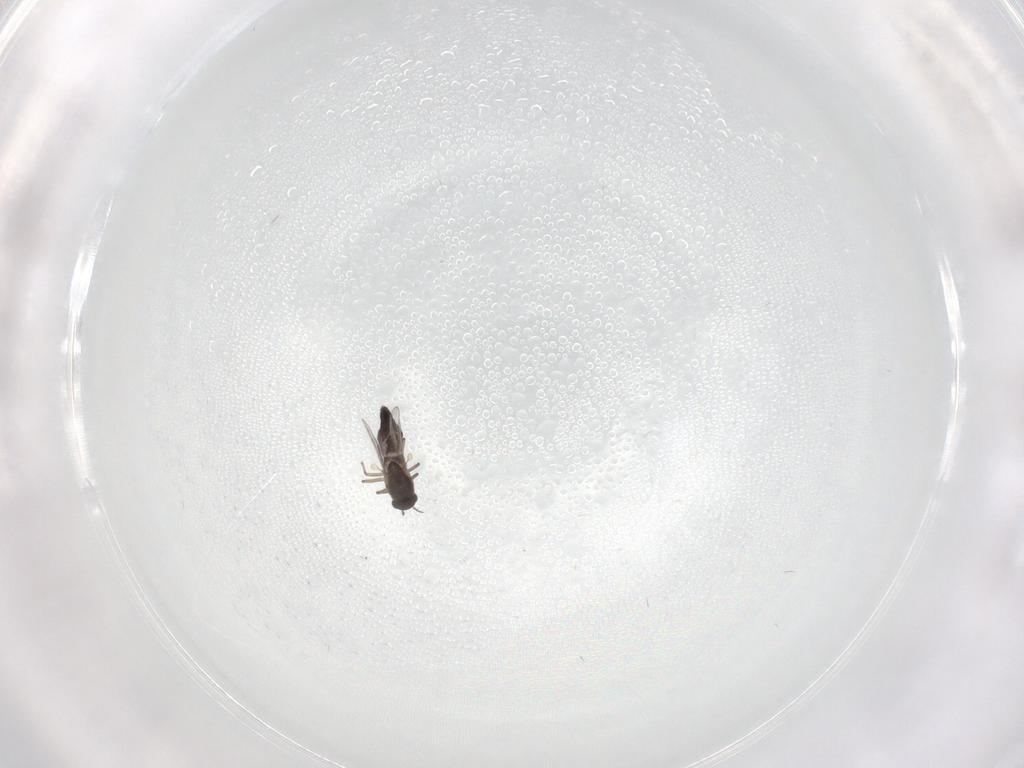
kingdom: Animalia
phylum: Arthropoda
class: Insecta
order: Diptera
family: Chironomidae
